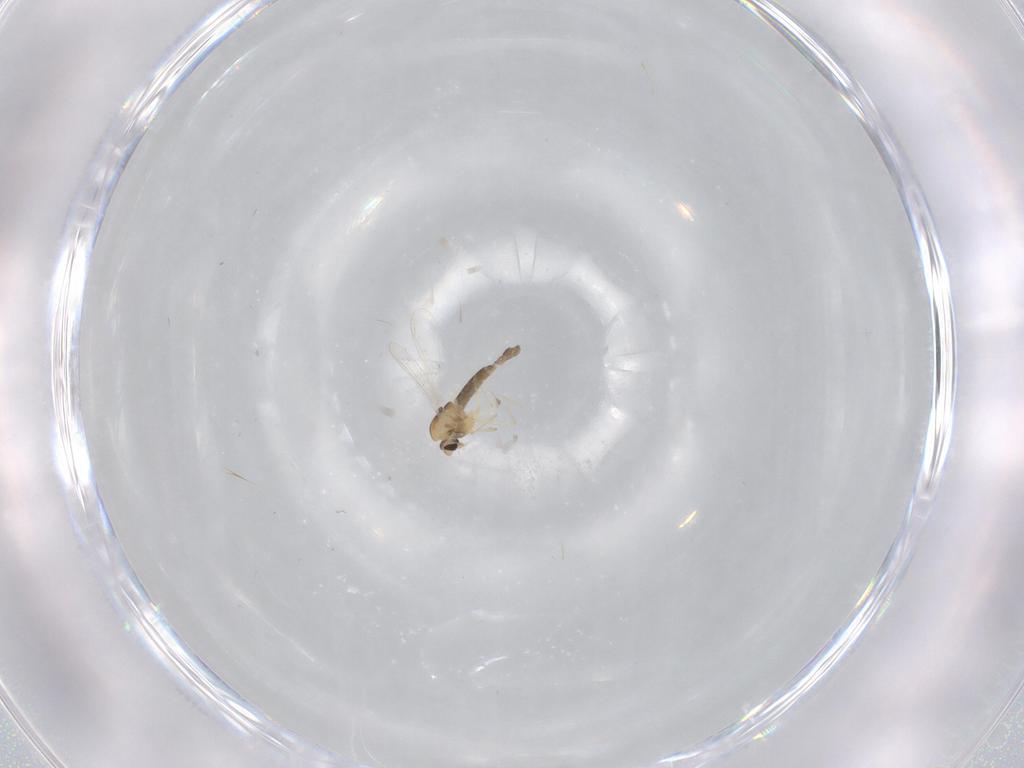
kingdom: Animalia
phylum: Arthropoda
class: Insecta
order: Diptera
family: Chironomidae
